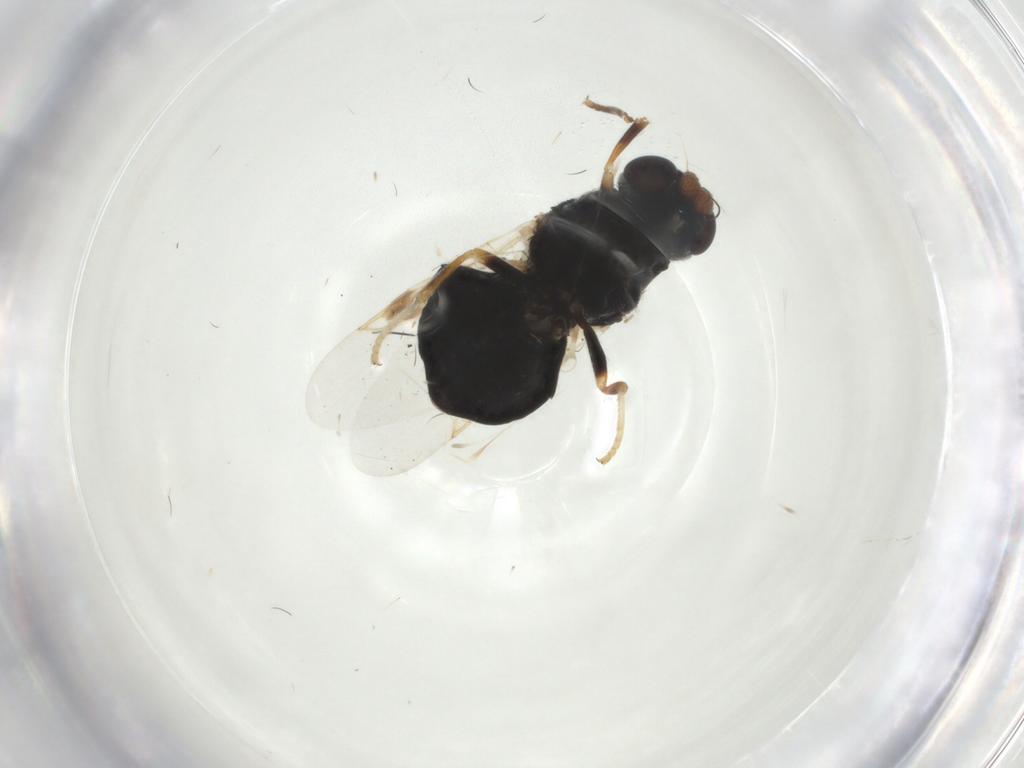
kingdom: Animalia
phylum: Arthropoda
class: Insecta
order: Diptera
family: Stratiomyidae
